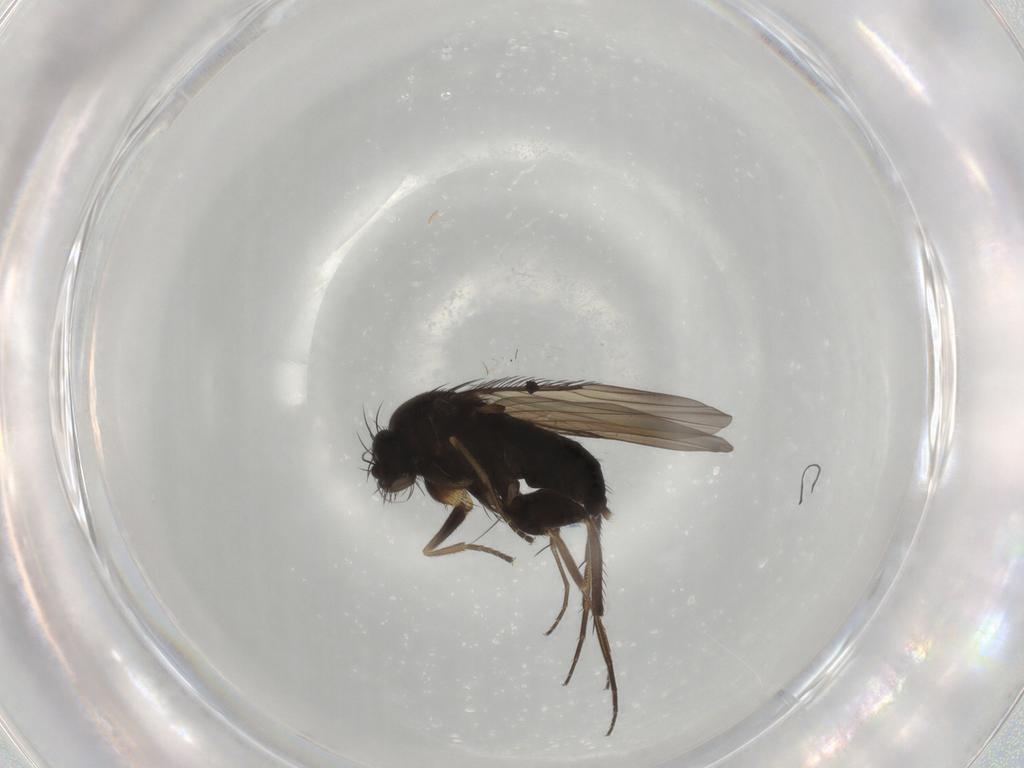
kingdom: Animalia
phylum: Arthropoda
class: Insecta
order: Diptera
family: Phoridae
